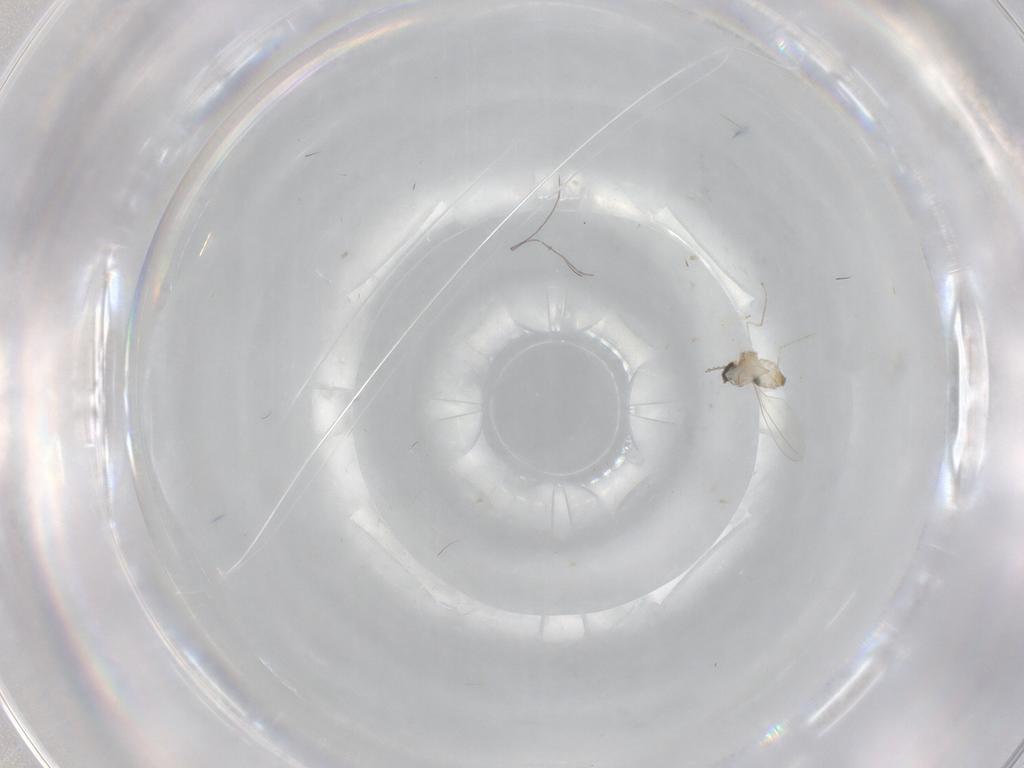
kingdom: Animalia
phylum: Arthropoda
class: Insecta
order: Diptera
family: Cecidomyiidae
